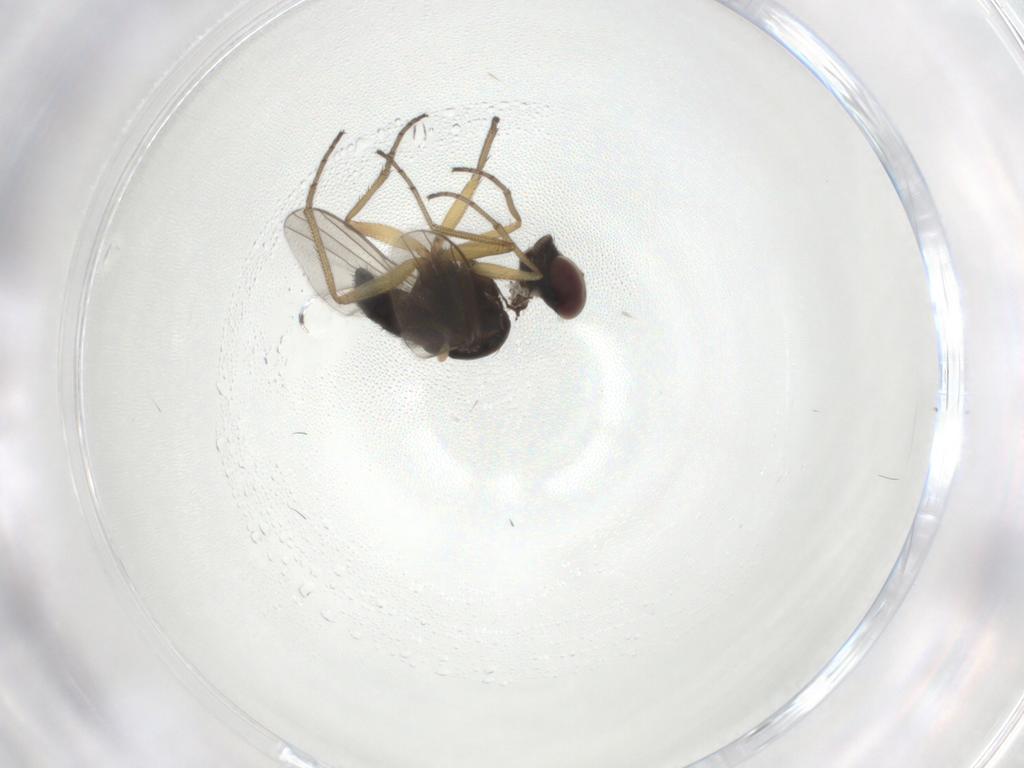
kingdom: Animalia
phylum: Arthropoda
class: Insecta
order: Diptera
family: Dolichopodidae
